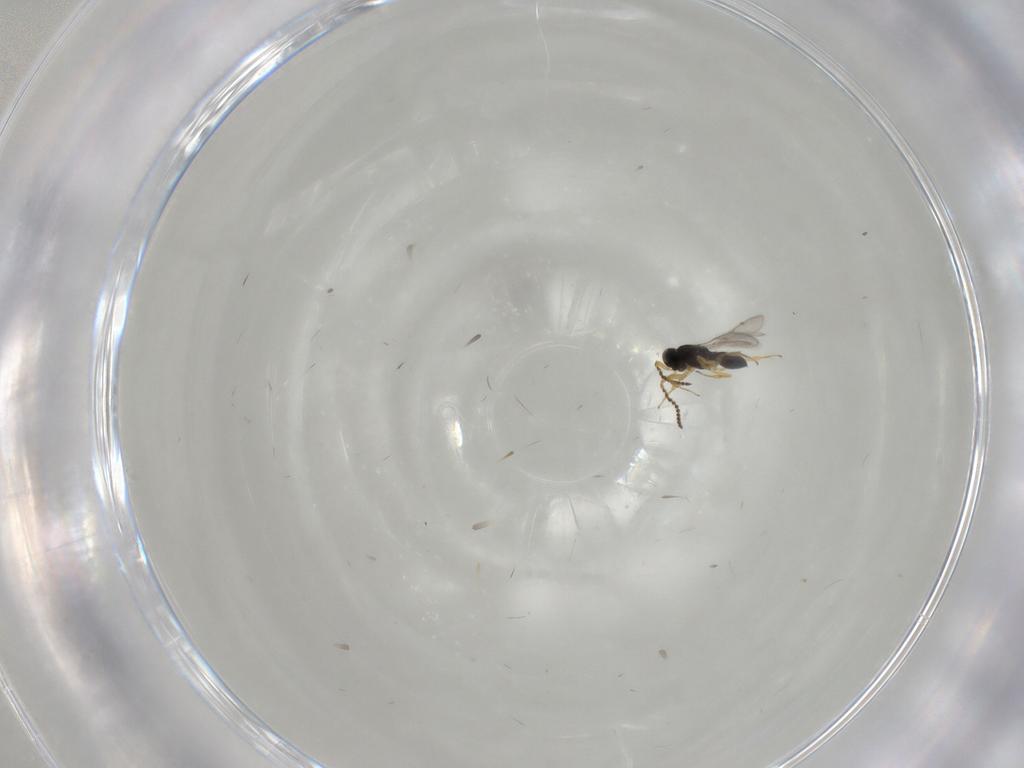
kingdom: Animalia
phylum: Arthropoda
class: Insecta
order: Hymenoptera
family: Scelionidae
